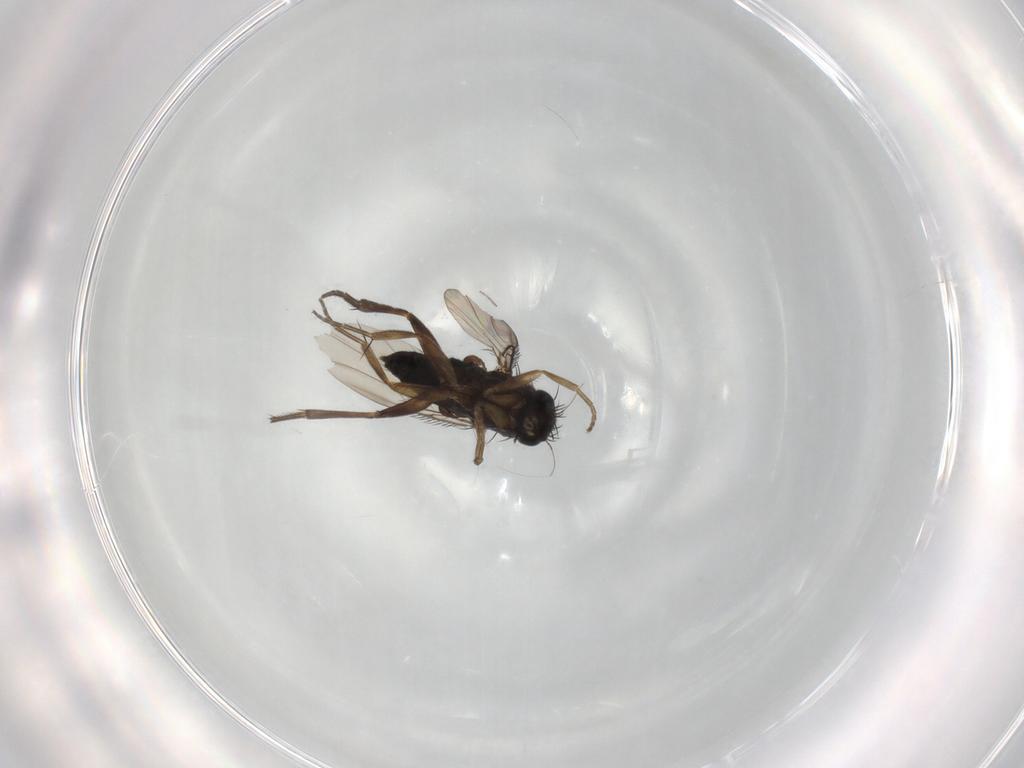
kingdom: Animalia
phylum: Arthropoda
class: Insecta
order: Diptera
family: Phoridae
